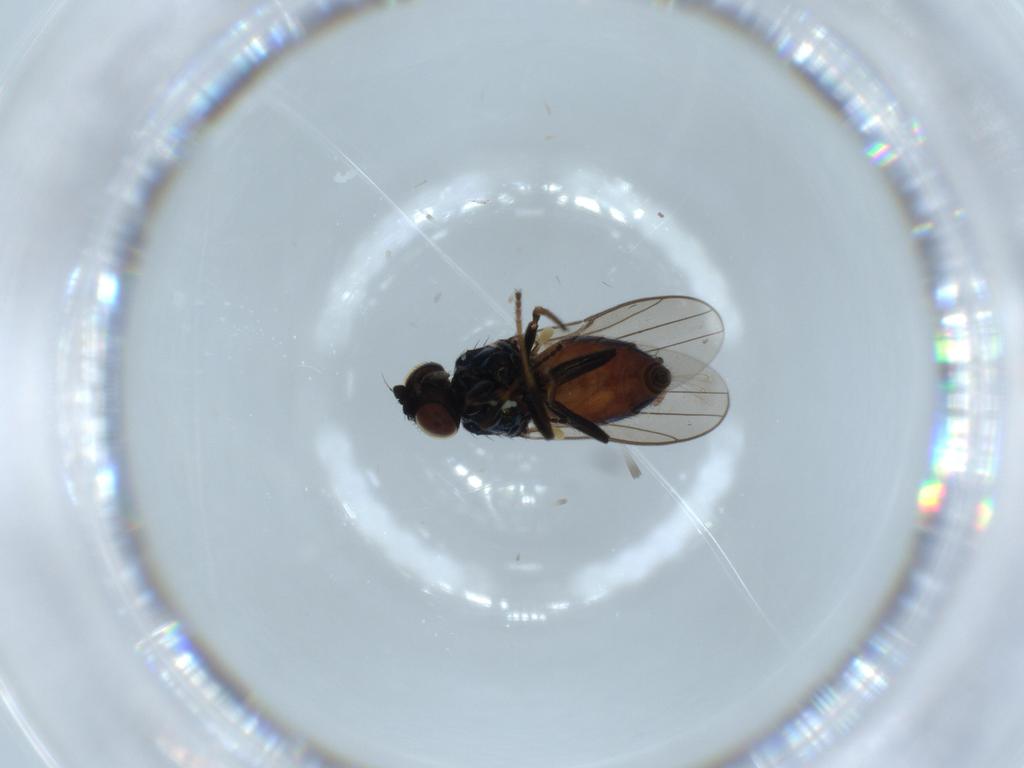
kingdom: Animalia
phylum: Arthropoda
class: Insecta
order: Diptera
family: Chloropidae
